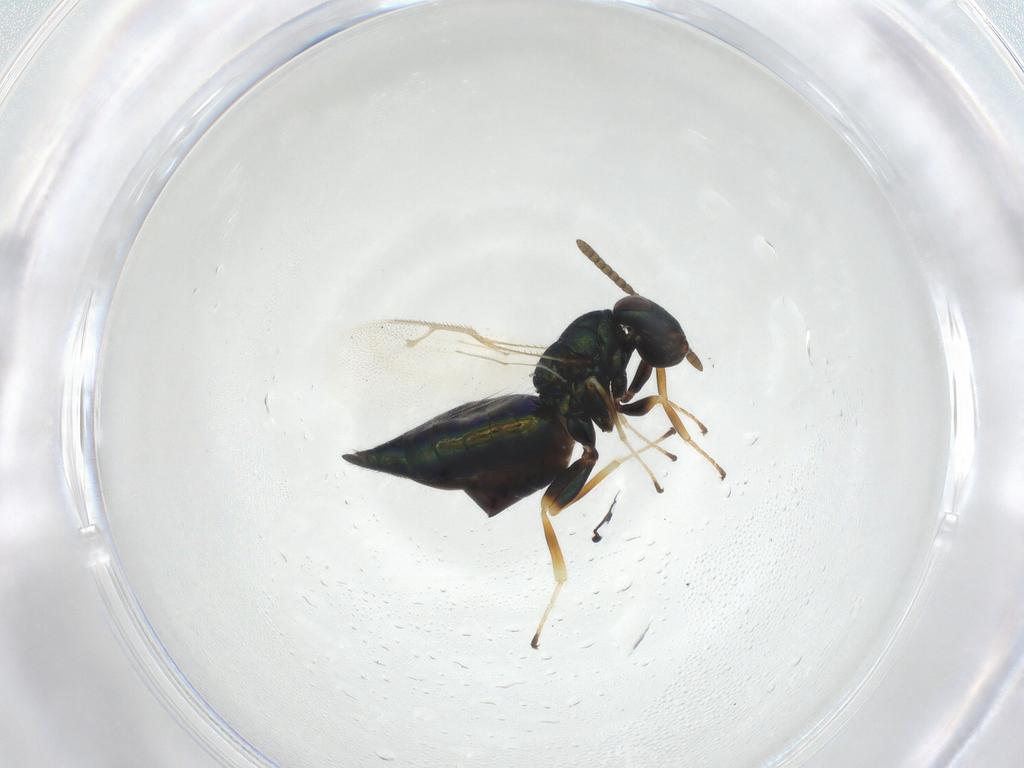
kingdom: Animalia
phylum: Arthropoda
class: Insecta
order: Hymenoptera
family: Pteromalidae
